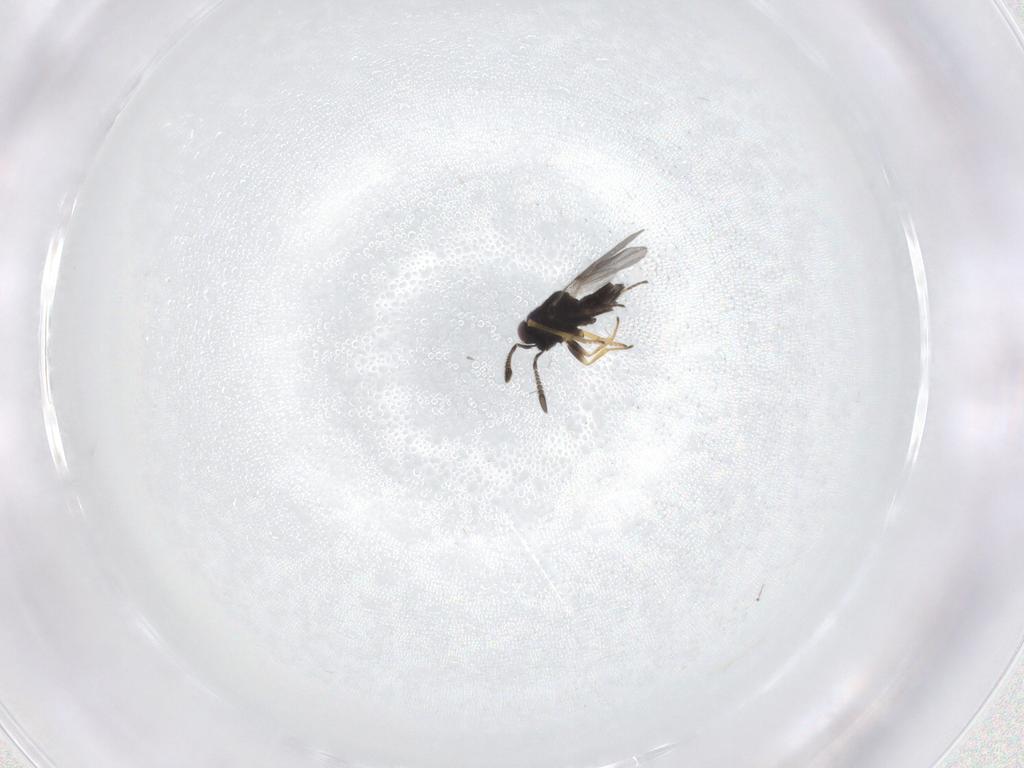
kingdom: Animalia
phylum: Arthropoda
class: Insecta
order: Hymenoptera
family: Encyrtidae
